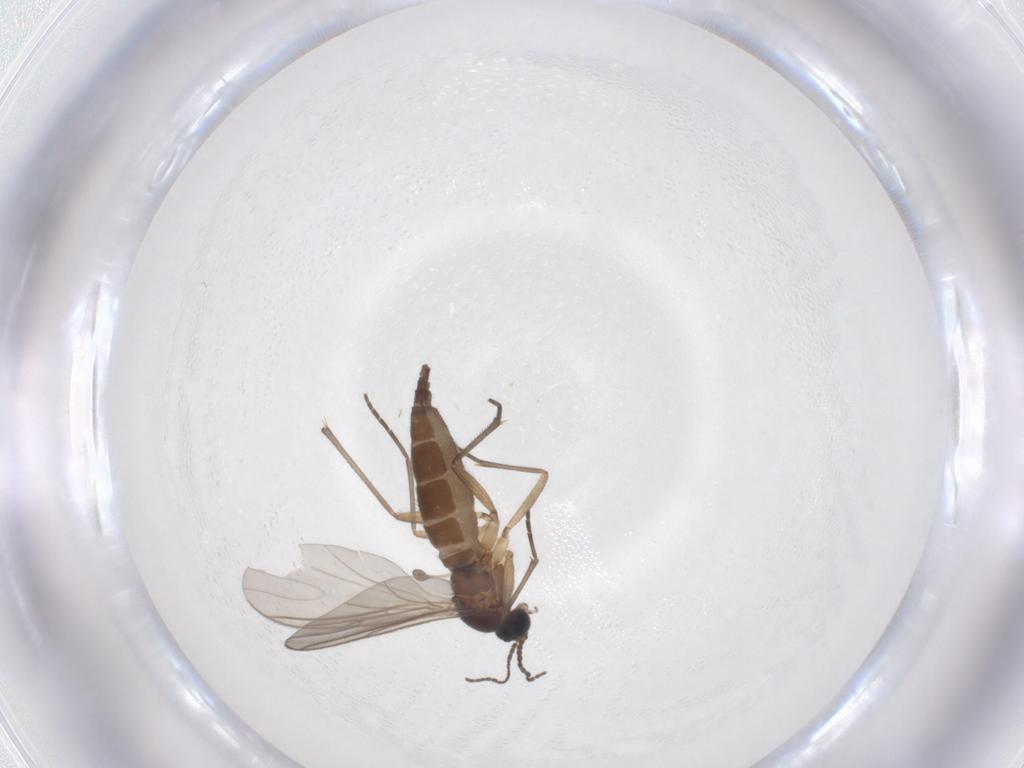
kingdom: Animalia
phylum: Arthropoda
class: Insecta
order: Diptera
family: Sciaridae
